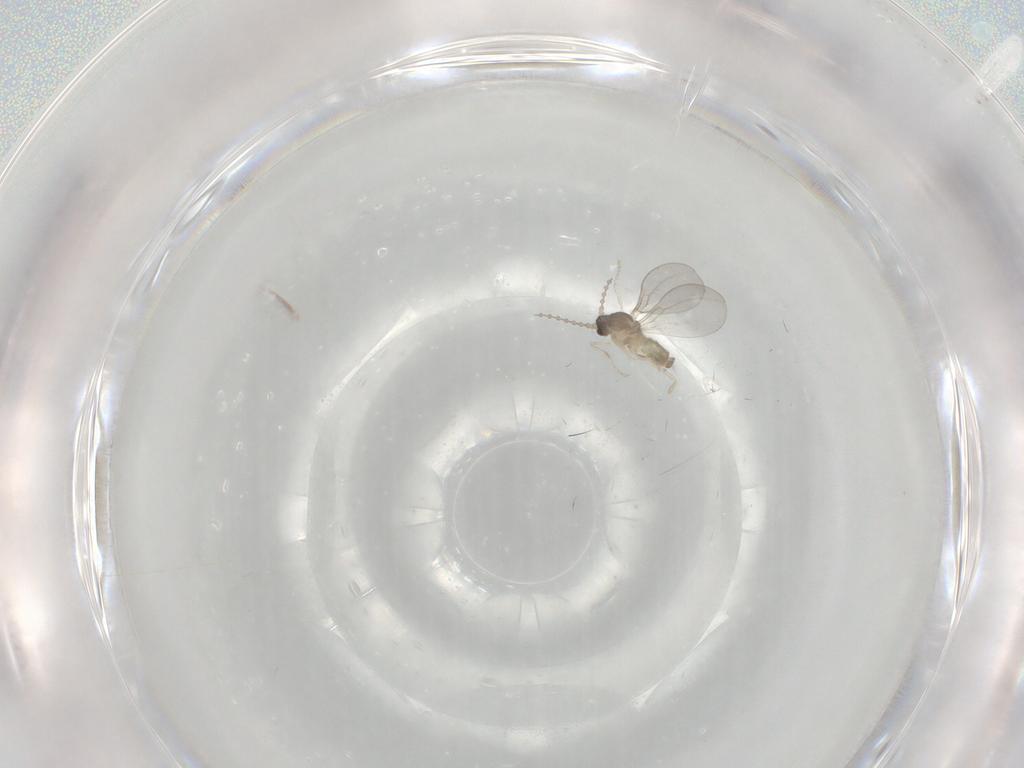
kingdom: Animalia
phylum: Arthropoda
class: Insecta
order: Diptera
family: Phoridae
